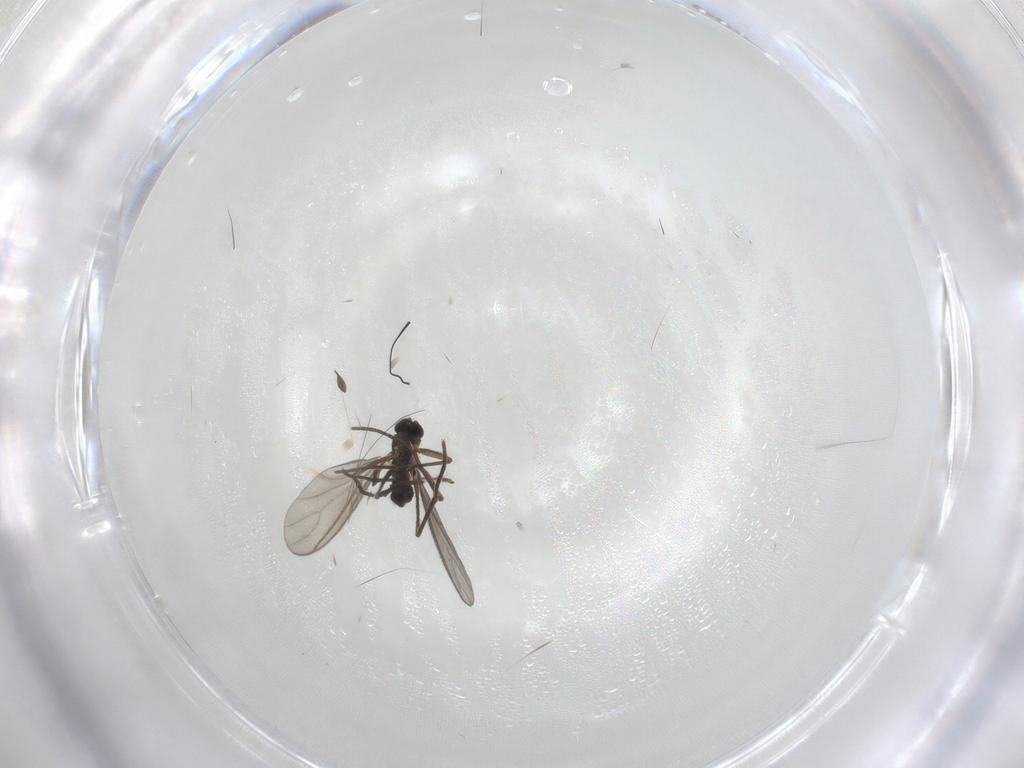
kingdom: Animalia
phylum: Arthropoda
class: Insecta
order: Diptera
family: Sciaridae
